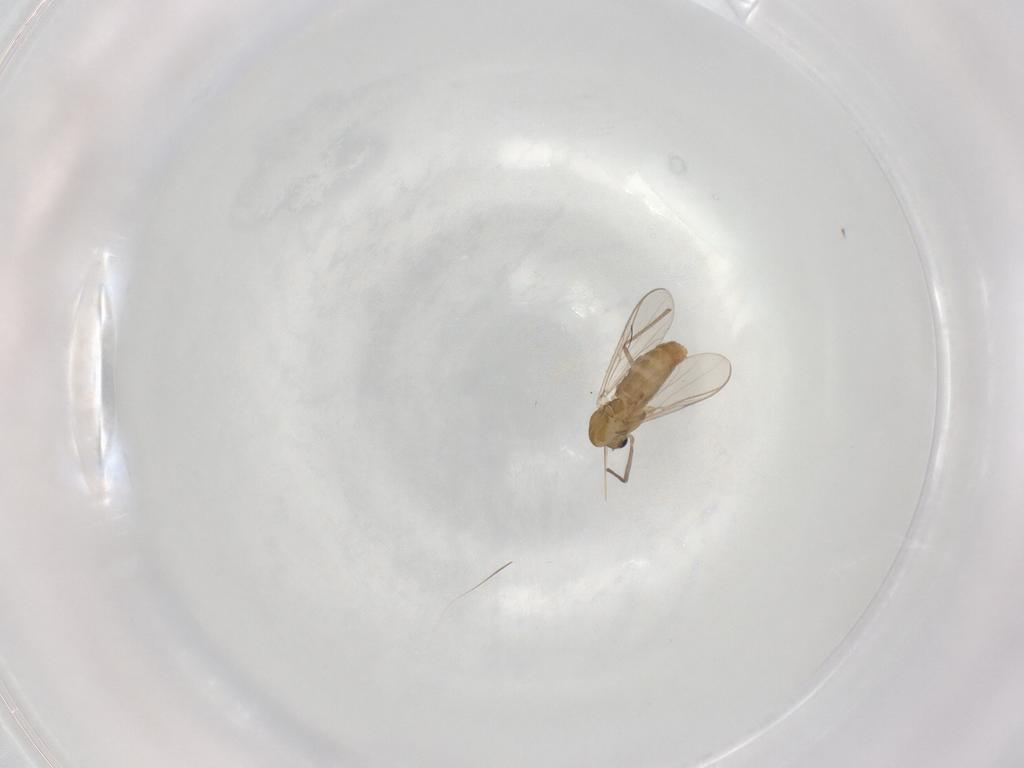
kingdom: Animalia
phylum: Arthropoda
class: Insecta
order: Diptera
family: Chironomidae
